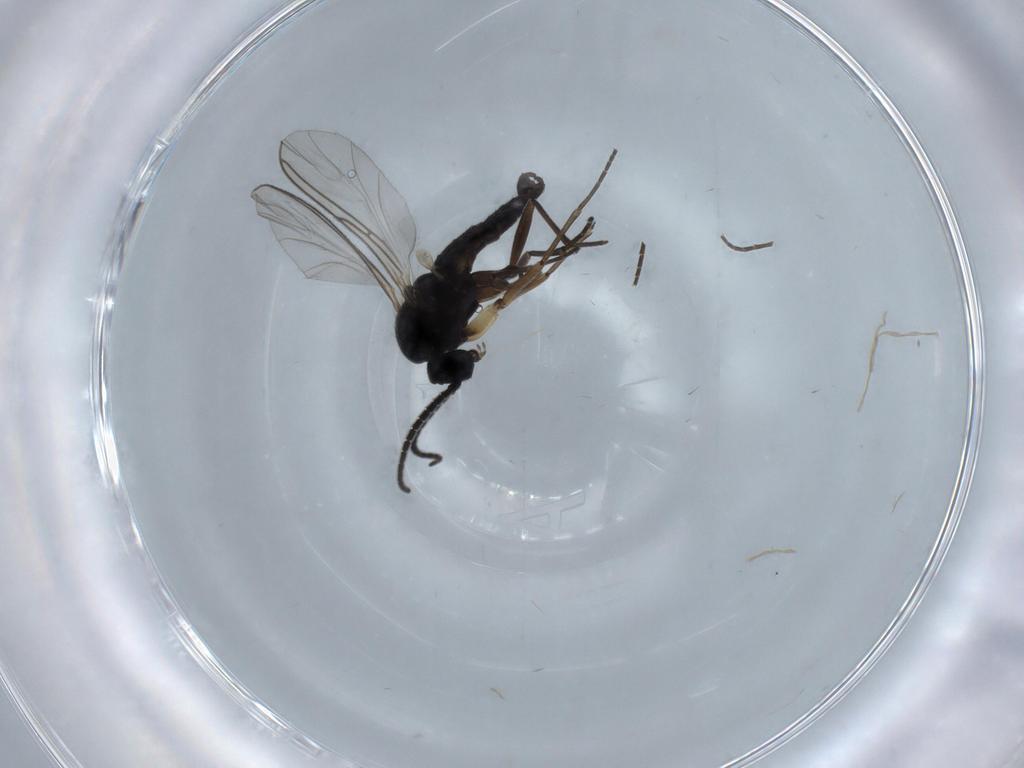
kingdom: Animalia
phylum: Arthropoda
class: Insecta
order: Diptera
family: Sciaridae
